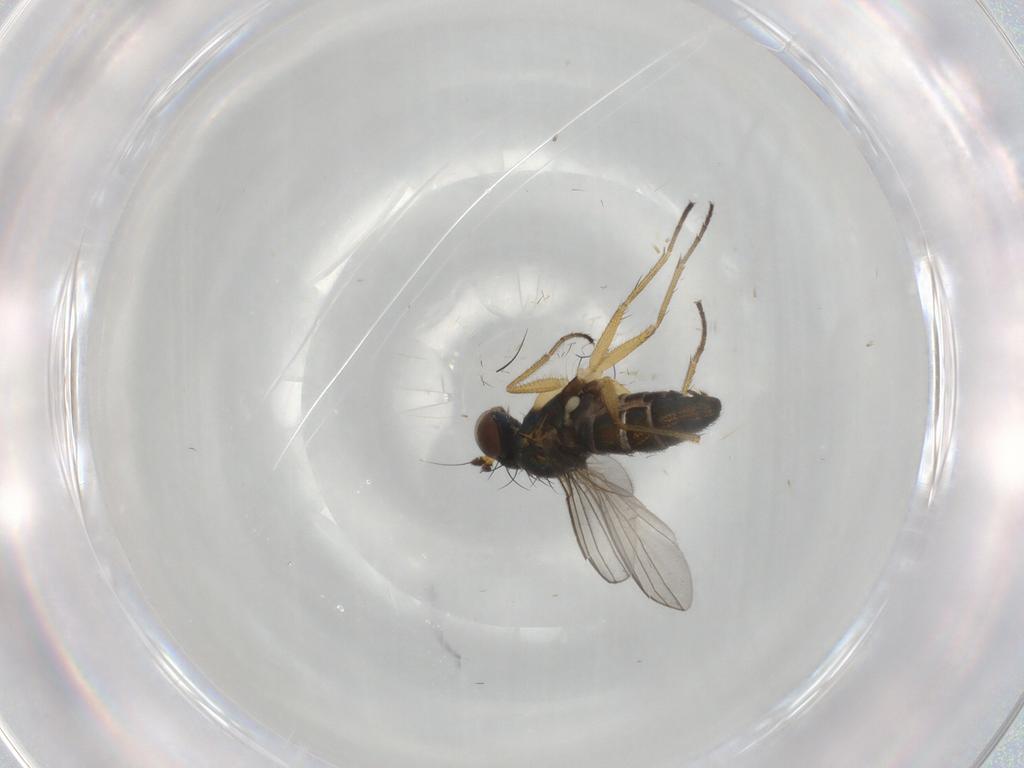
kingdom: Animalia
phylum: Arthropoda
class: Insecta
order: Diptera
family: Dolichopodidae
